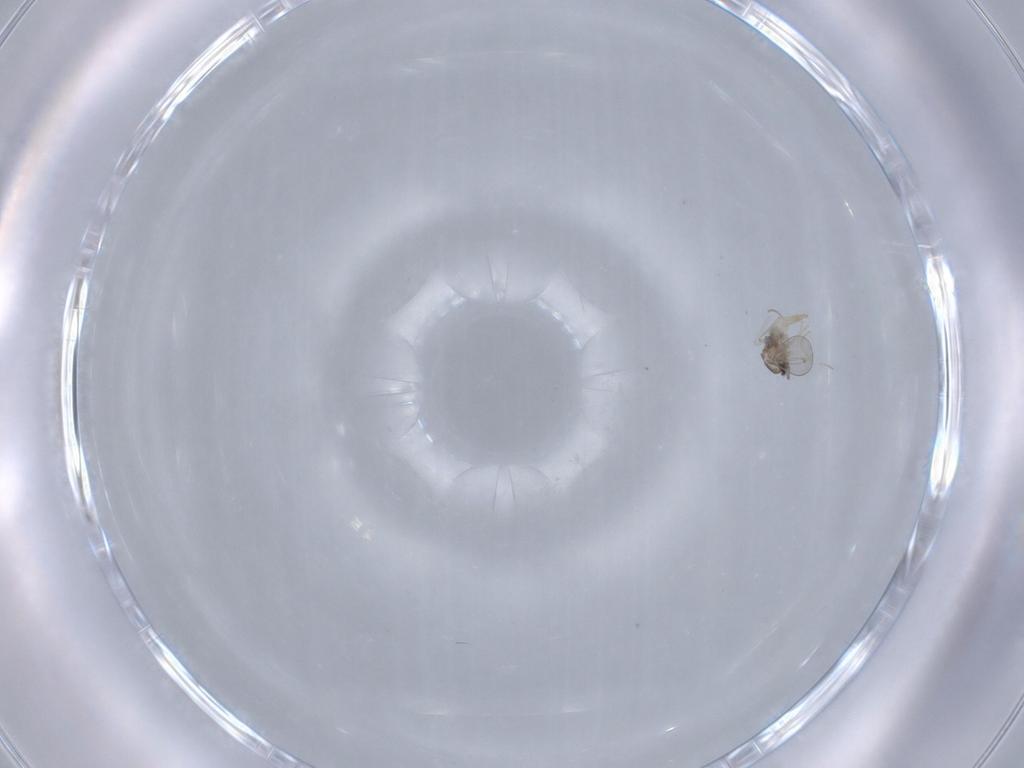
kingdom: Animalia
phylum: Arthropoda
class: Insecta
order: Diptera
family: Cecidomyiidae
